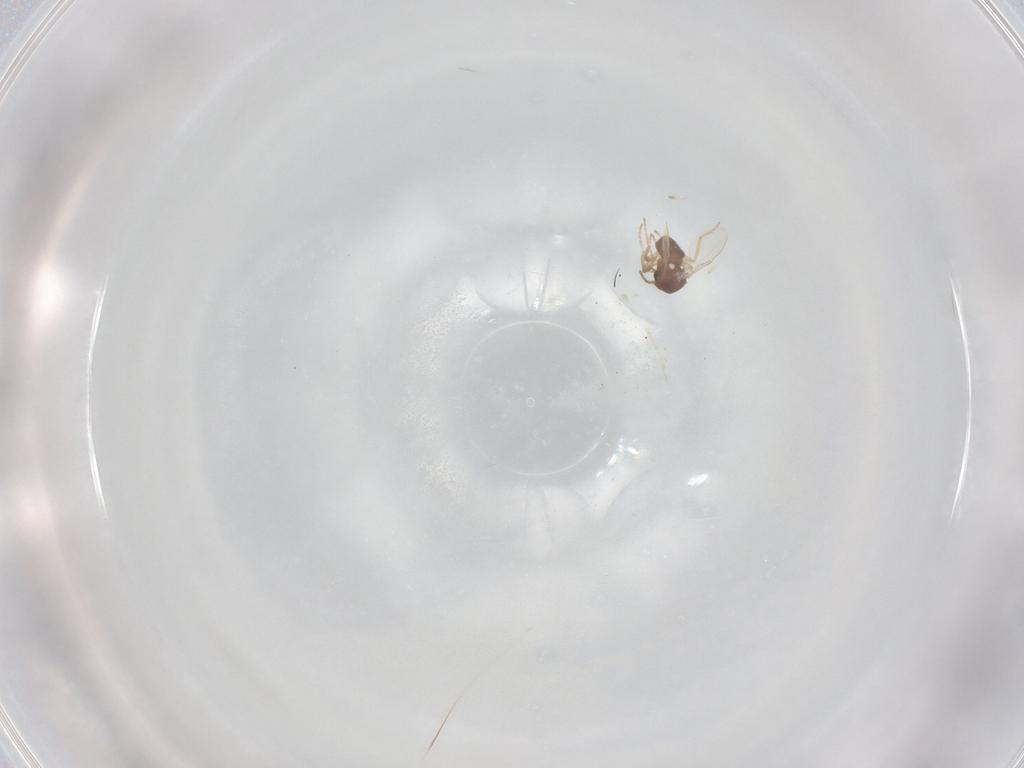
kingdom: Animalia
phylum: Arthropoda
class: Insecta
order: Diptera
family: Ceratopogonidae
